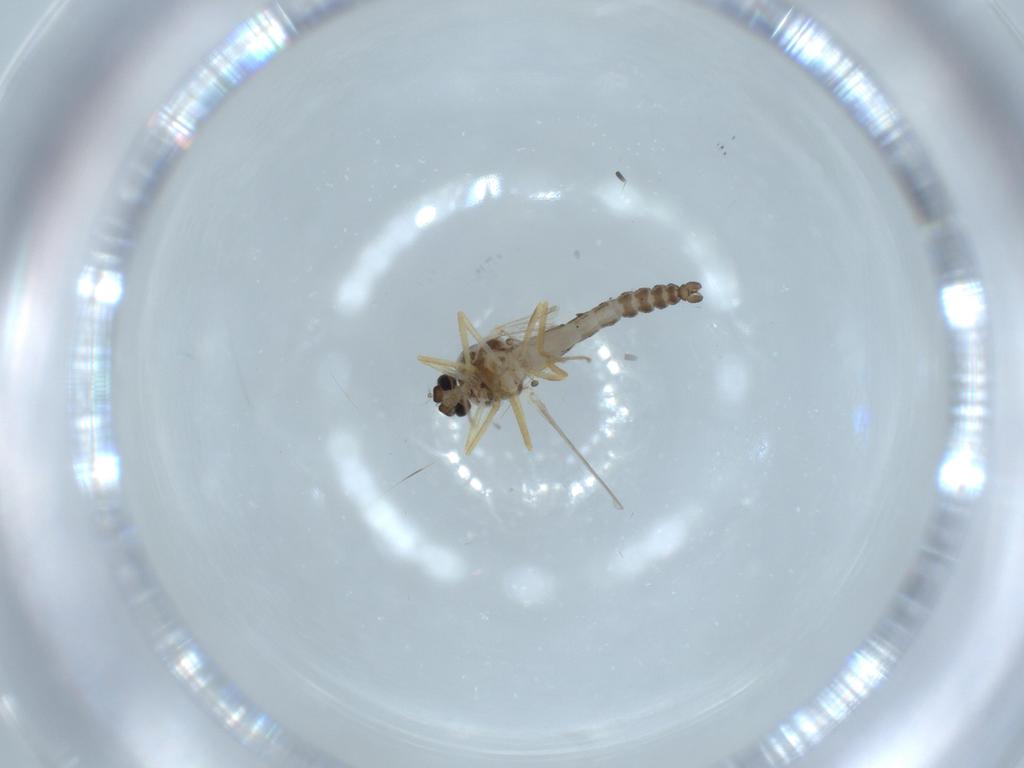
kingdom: Animalia
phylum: Arthropoda
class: Insecta
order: Diptera
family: Ceratopogonidae
